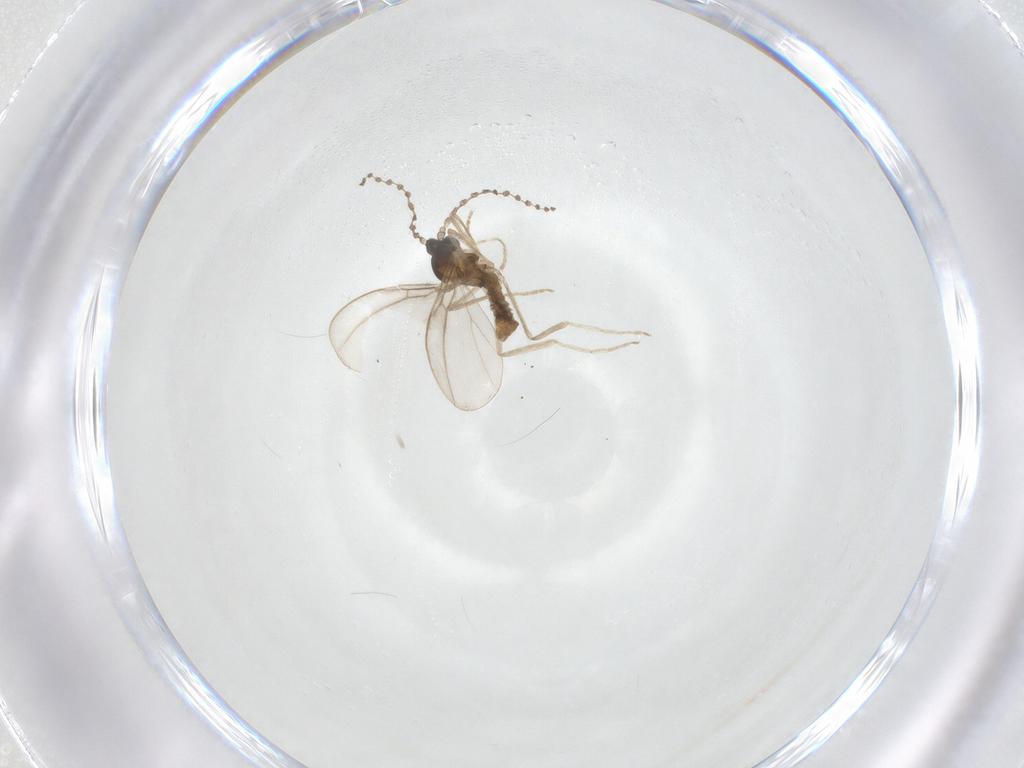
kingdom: Animalia
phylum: Arthropoda
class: Insecta
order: Diptera
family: Cecidomyiidae
